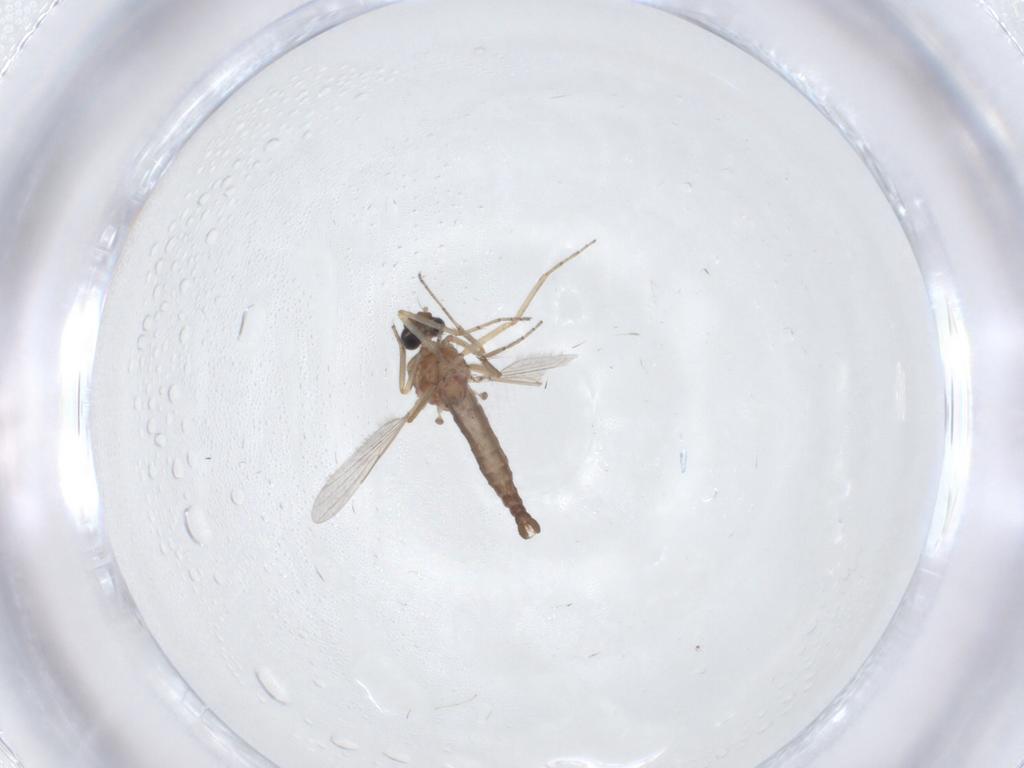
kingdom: Animalia
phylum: Arthropoda
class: Insecta
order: Diptera
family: Ceratopogonidae
